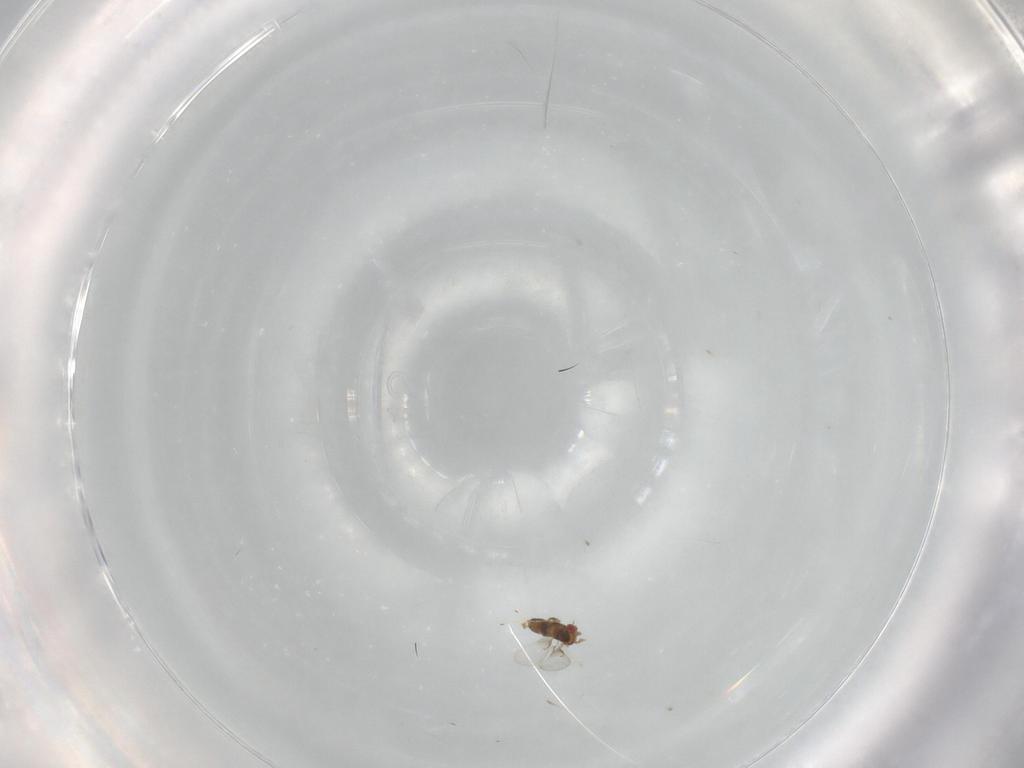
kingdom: Animalia
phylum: Arthropoda
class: Insecta
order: Hymenoptera
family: Trichogrammatidae
